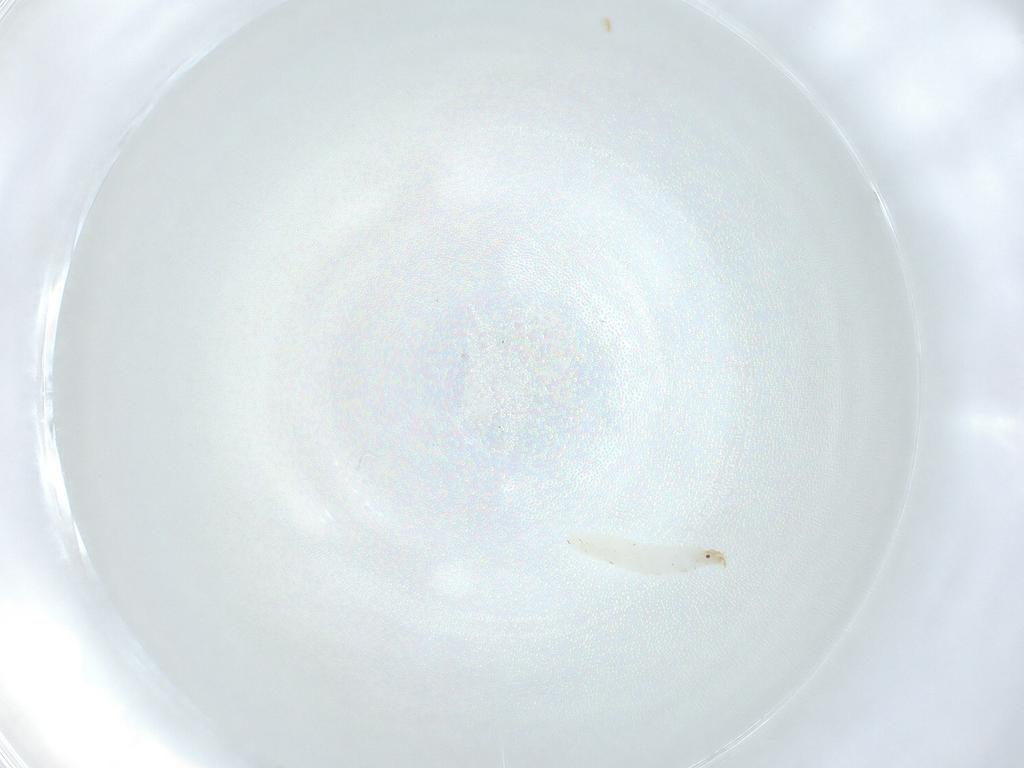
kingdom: Animalia
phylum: Arthropoda
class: Insecta
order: Diptera
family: Stratiomyidae
